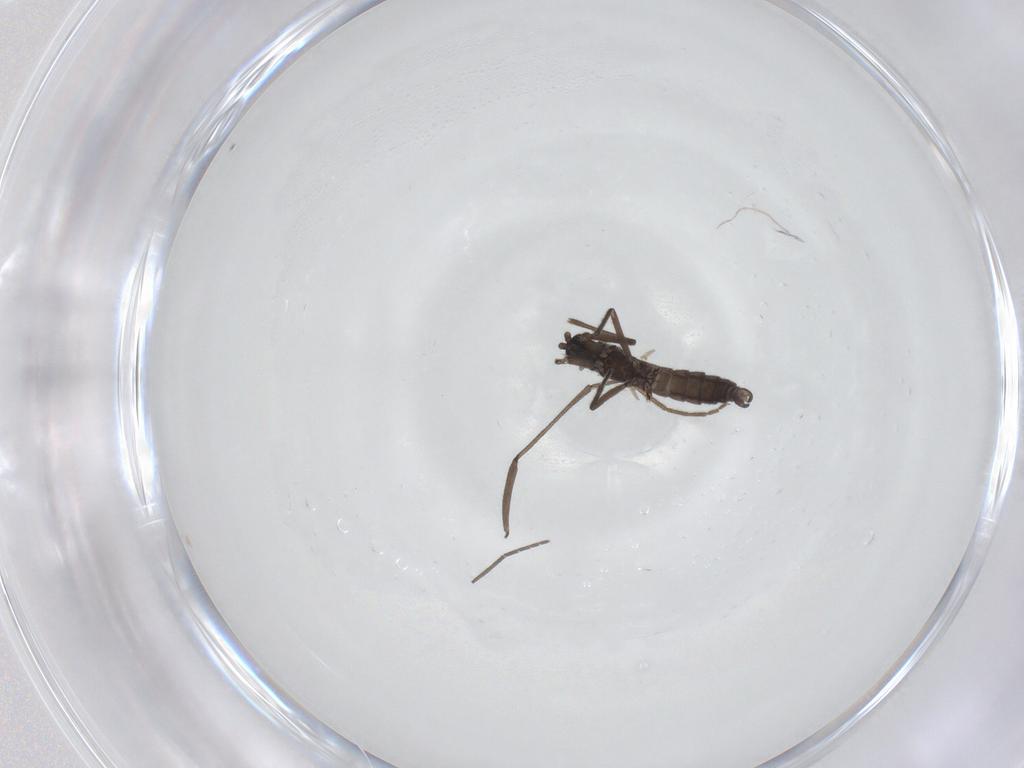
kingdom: Animalia
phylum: Arthropoda
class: Insecta
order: Diptera
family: Sciaridae
